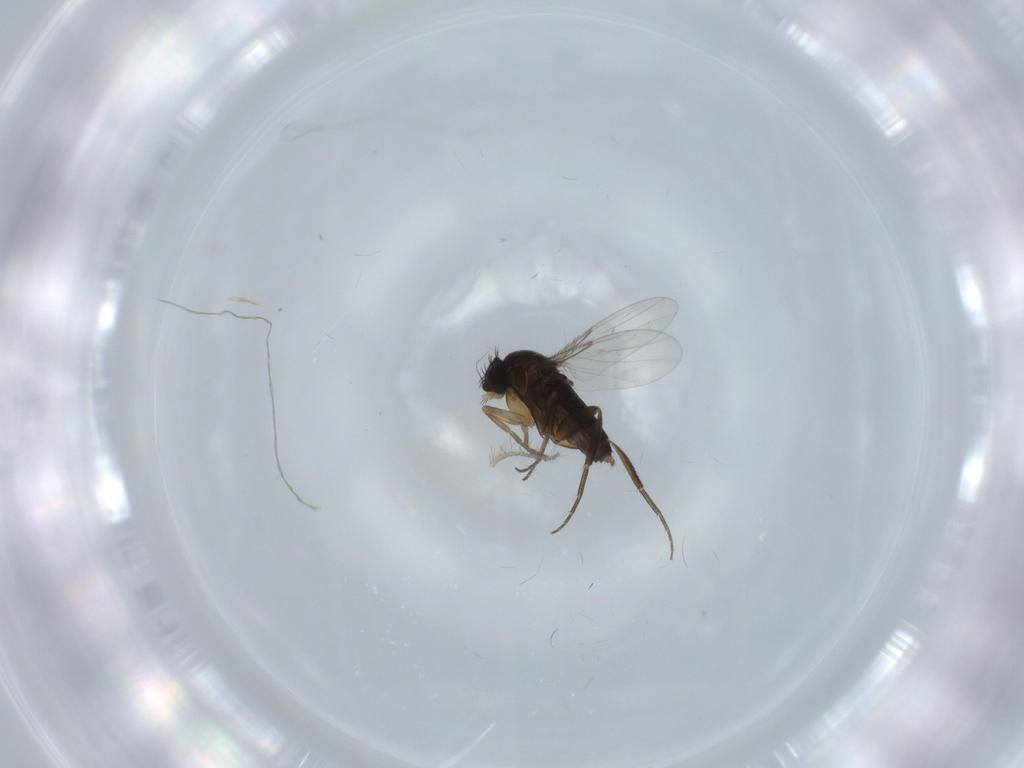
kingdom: Animalia
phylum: Arthropoda
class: Insecta
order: Diptera
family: Phoridae
